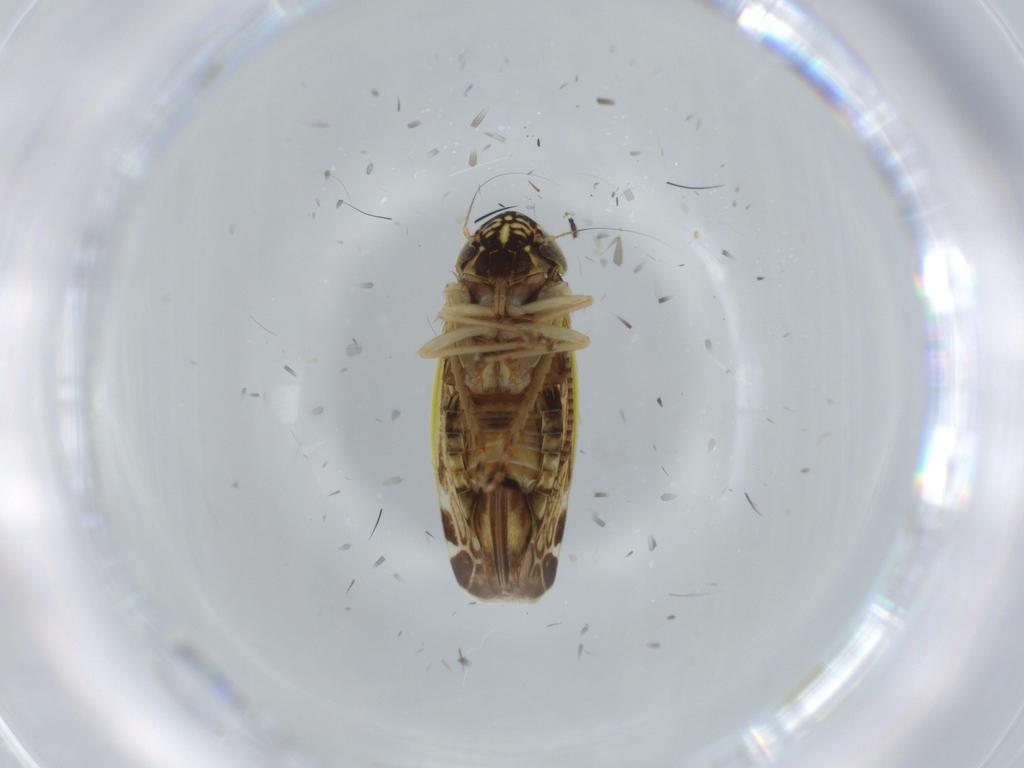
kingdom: Animalia
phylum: Arthropoda
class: Insecta
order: Hemiptera
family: Cicadellidae
